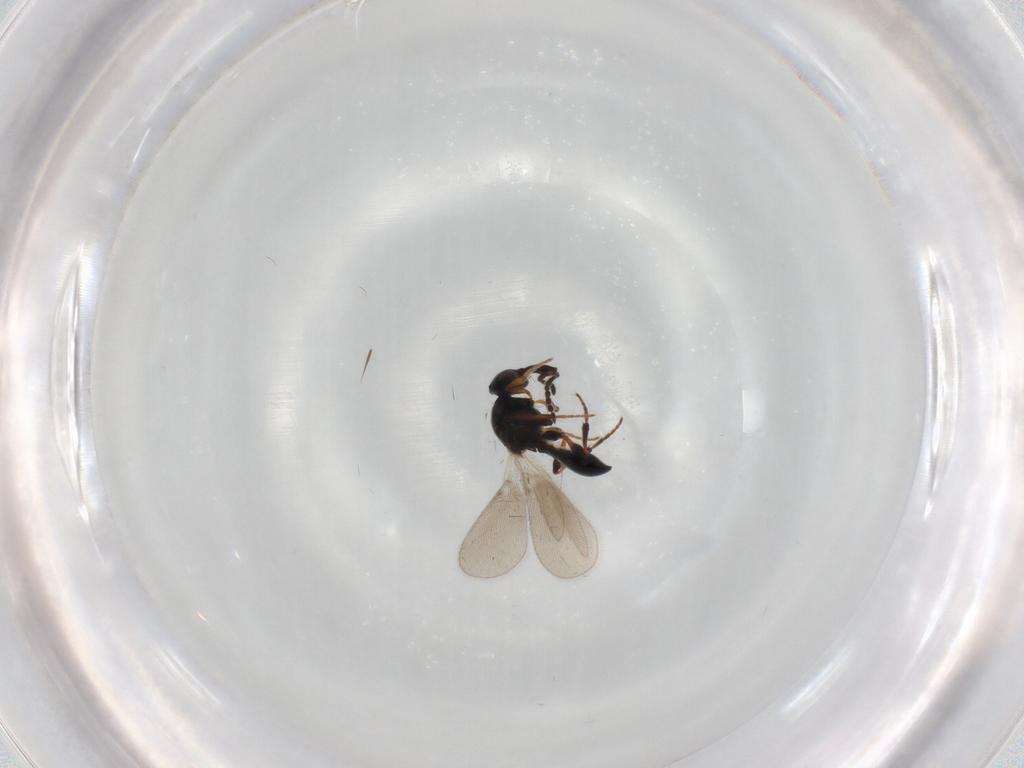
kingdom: Animalia
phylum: Arthropoda
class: Insecta
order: Hymenoptera
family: Platygastridae
